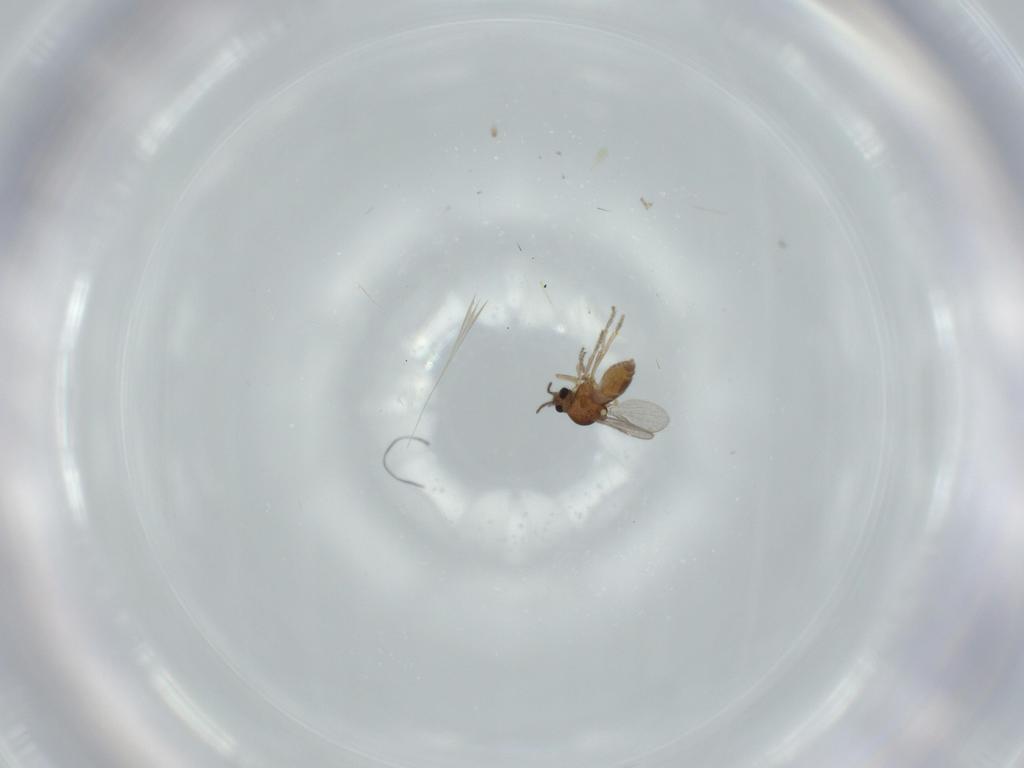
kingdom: Animalia
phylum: Arthropoda
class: Insecta
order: Diptera
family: Ceratopogonidae
